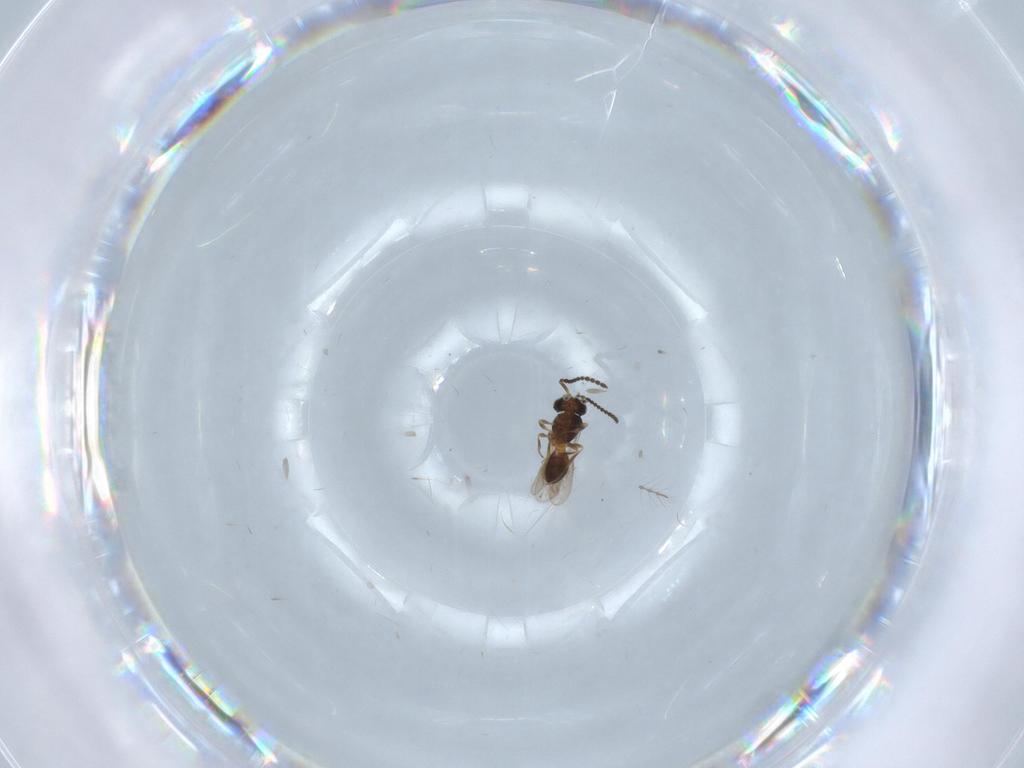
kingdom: Animalia
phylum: Arthropoda
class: Insecta
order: Hymenoptera
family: Scelionidae
